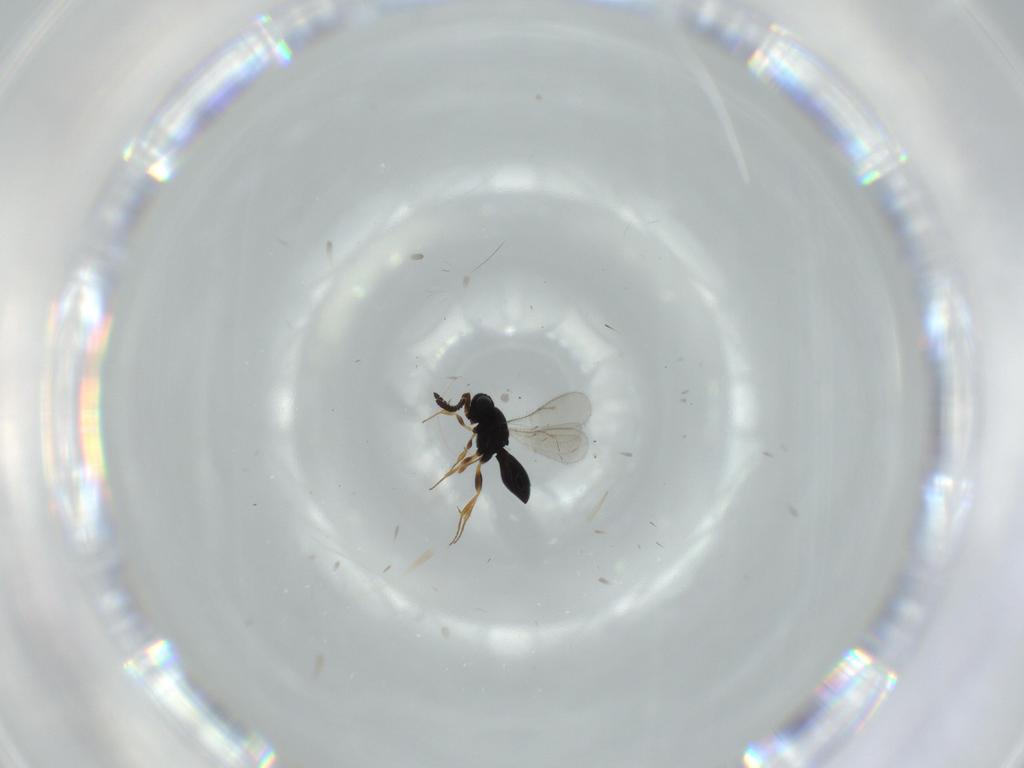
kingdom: Animalia
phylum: Arthropoda
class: Insecta
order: Hymenoptera
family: Scelionidae
